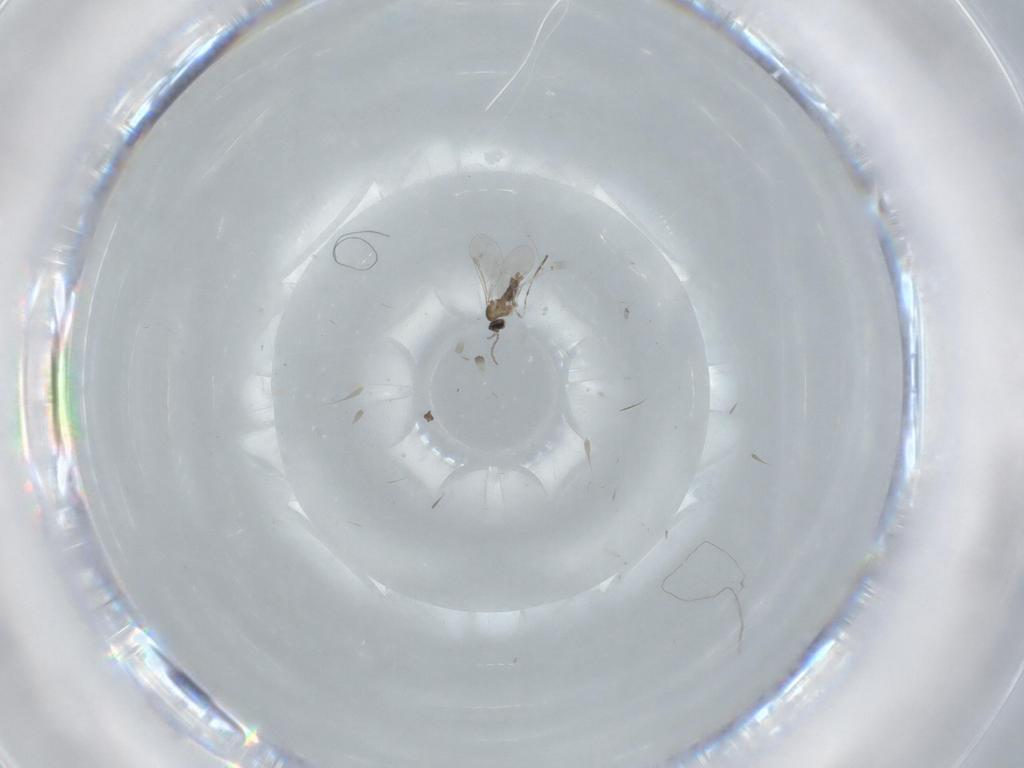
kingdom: Animalia
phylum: Arthropoda
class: Insecta
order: Diptera
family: Cecidomyiidae
